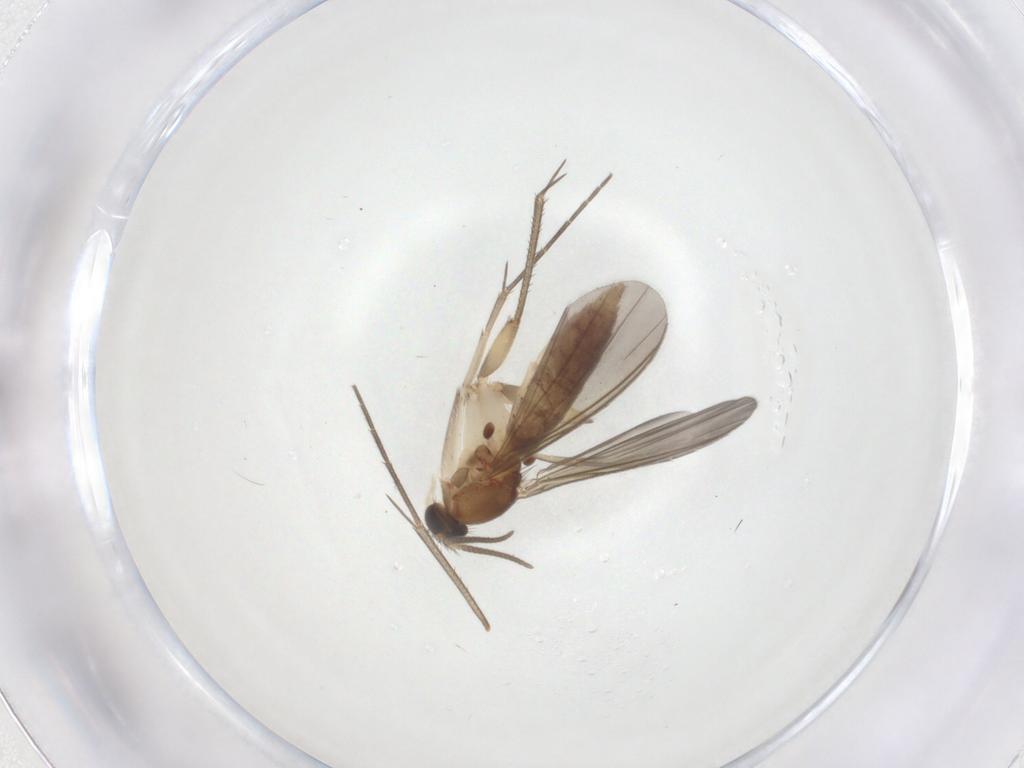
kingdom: Animalia
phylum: Arthropoda
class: Insecta
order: Diptera
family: Mycetophilidae
